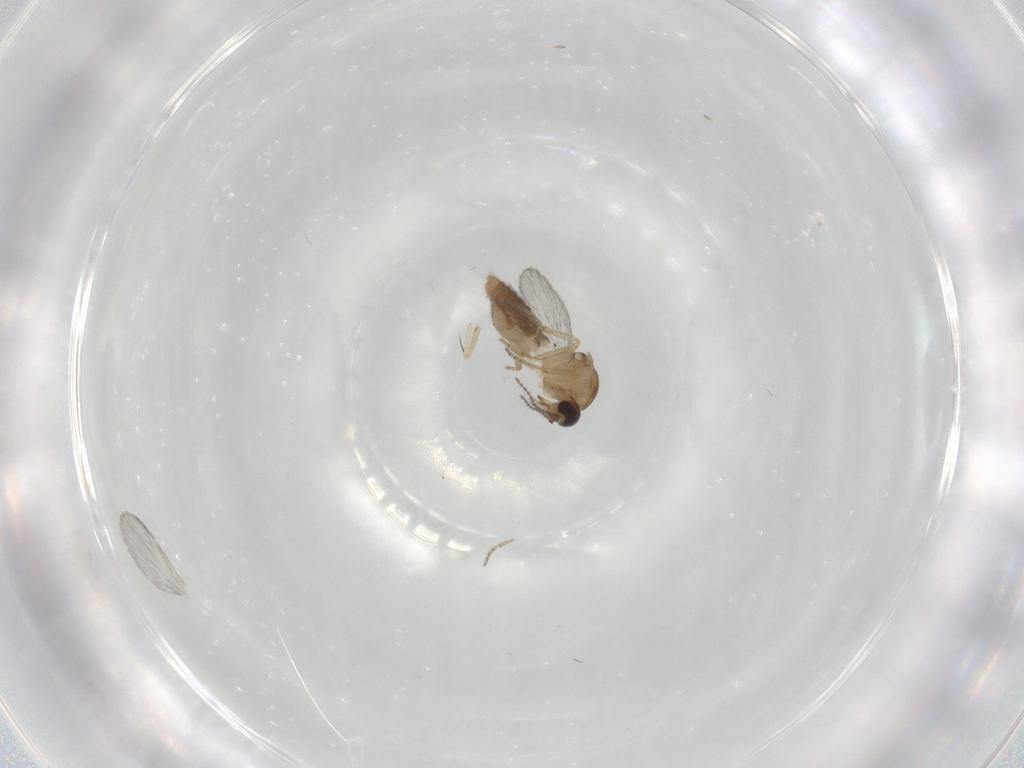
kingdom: Animalia
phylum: Arthropoda
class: Insecta
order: Diptera
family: Ceratopogonidae
